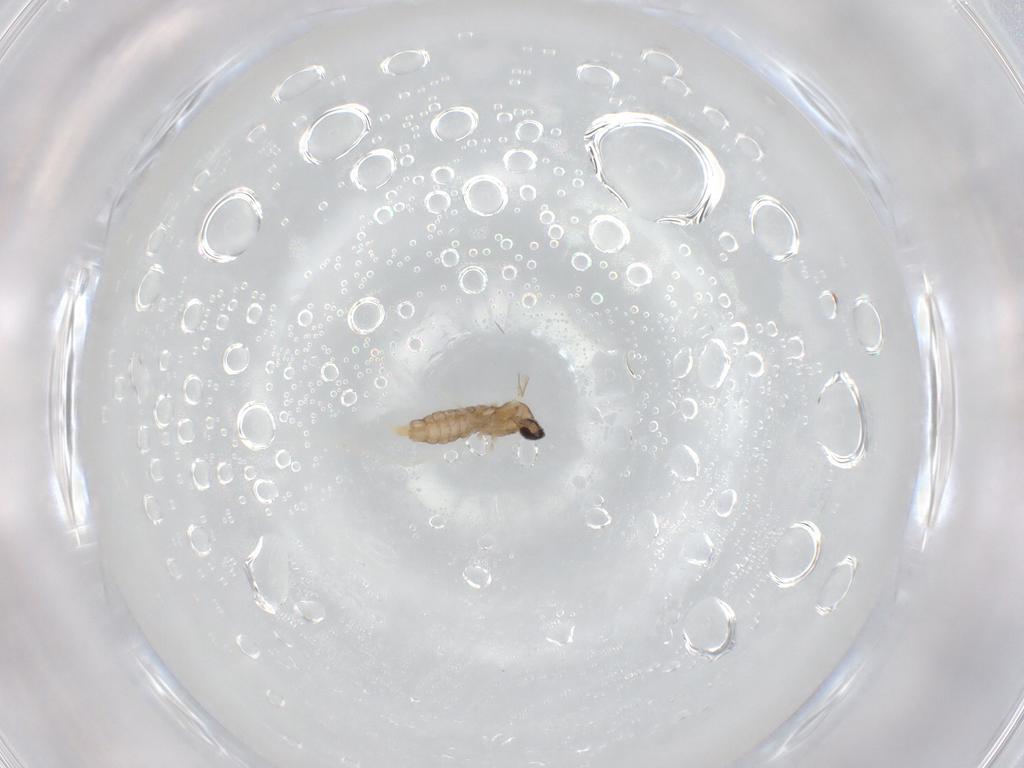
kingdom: Animalia
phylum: Arthropoda
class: Insecta
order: Diptera
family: Cecidomyiidae
